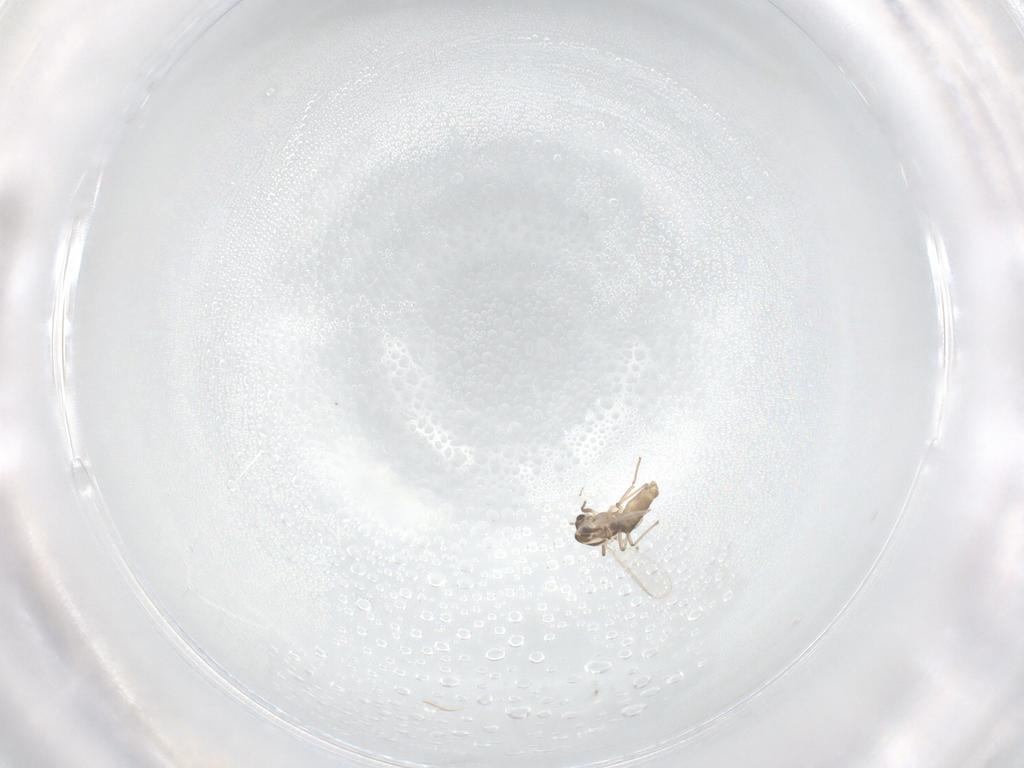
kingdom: Animalia
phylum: Arthropoda
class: Insecta
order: Diptera
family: Chironomidae
